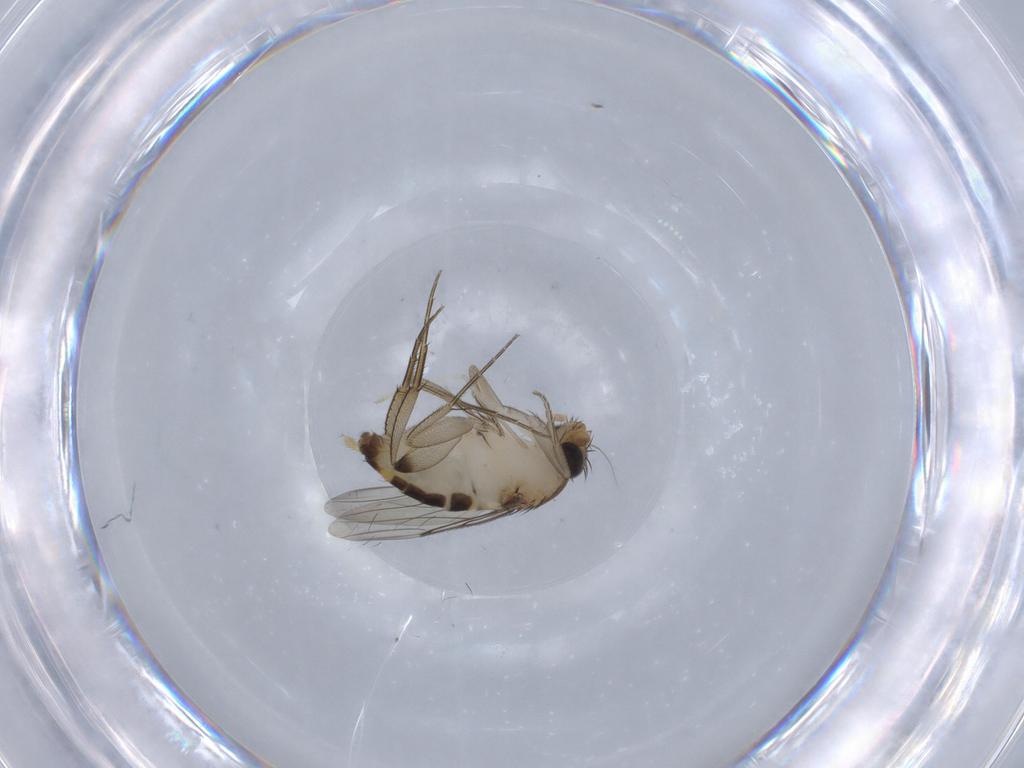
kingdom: Animalia
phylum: Arthropoda
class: Insecta
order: Diptera
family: Phoridae
